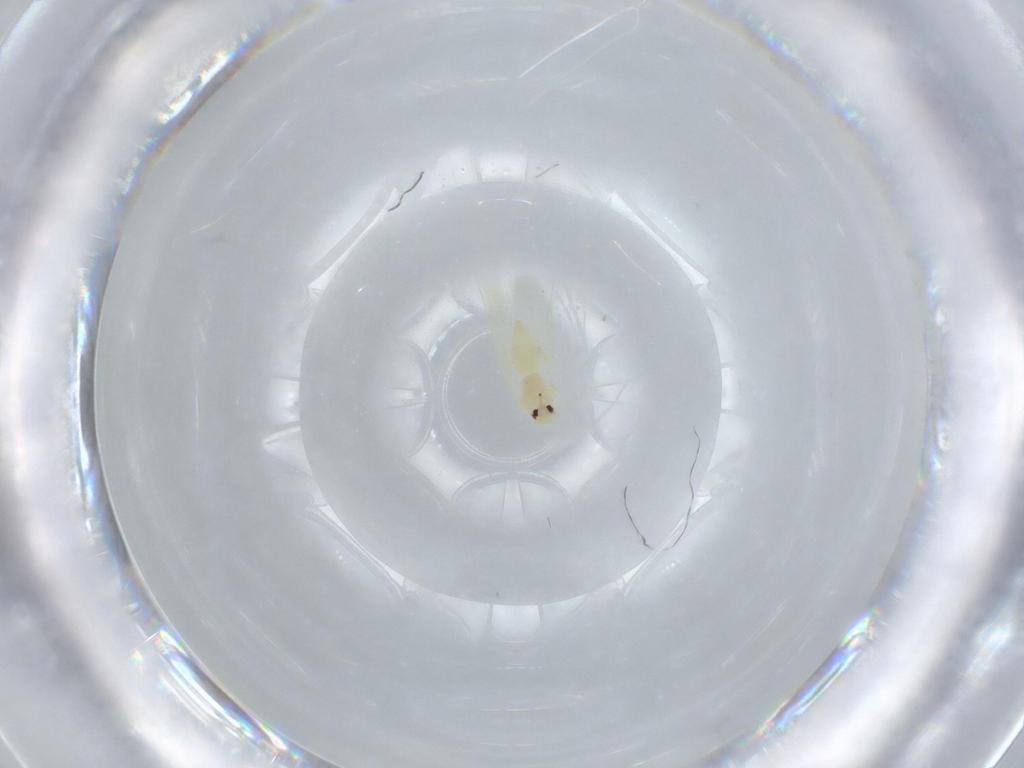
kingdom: Animalia
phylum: Arthropoda
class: Insecta
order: Hemiptera
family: Aleyrodidae
